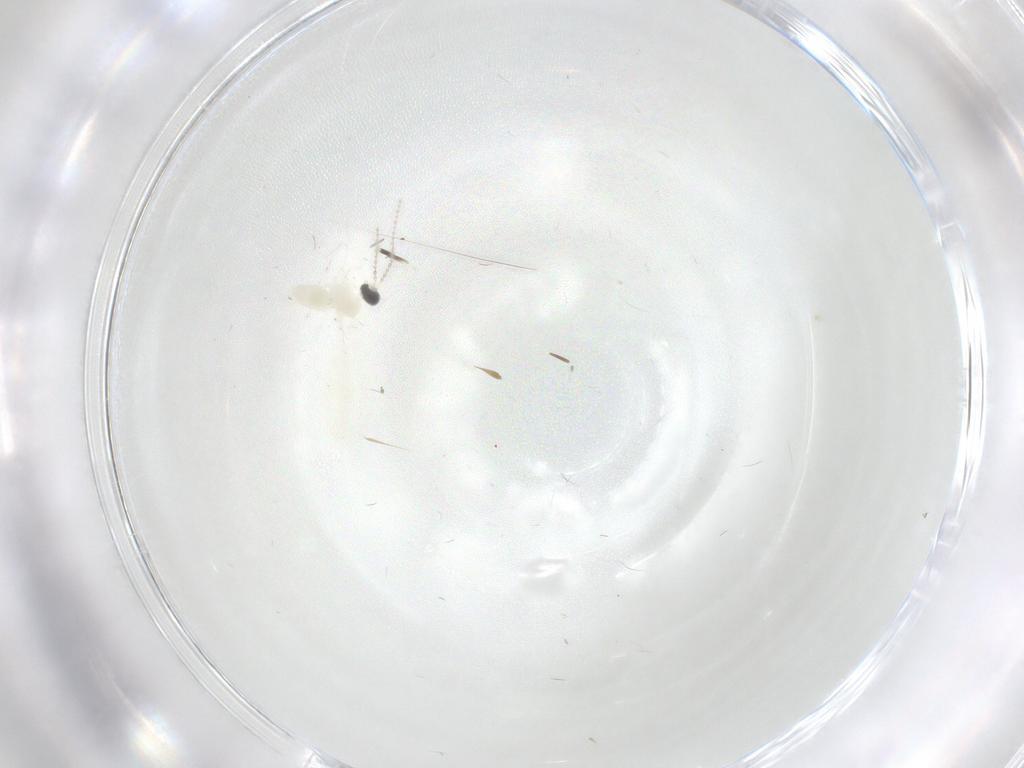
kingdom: Animalia
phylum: Arthropoda
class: Insecta
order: Diptera
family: Cecidomyiidae
